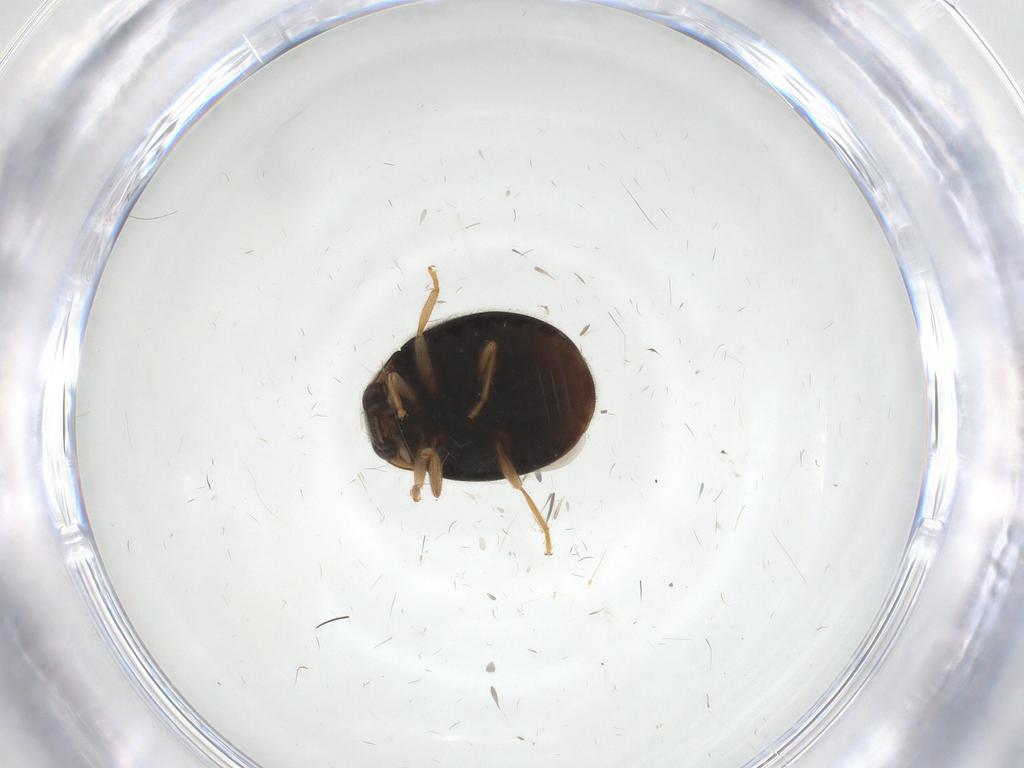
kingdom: Animalia
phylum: Arthropoda
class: Insecta
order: Coleoptera
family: Coccinellidae
